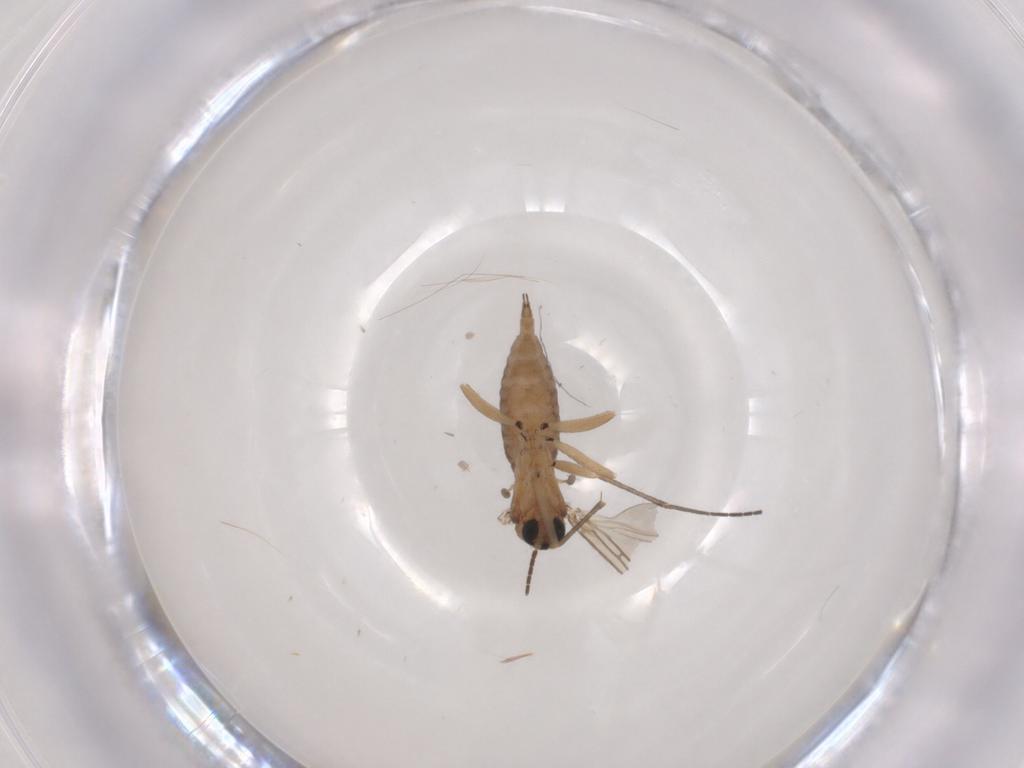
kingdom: Animalia
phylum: Arthropoda
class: Insecta
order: Diptera
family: Sciaridae
